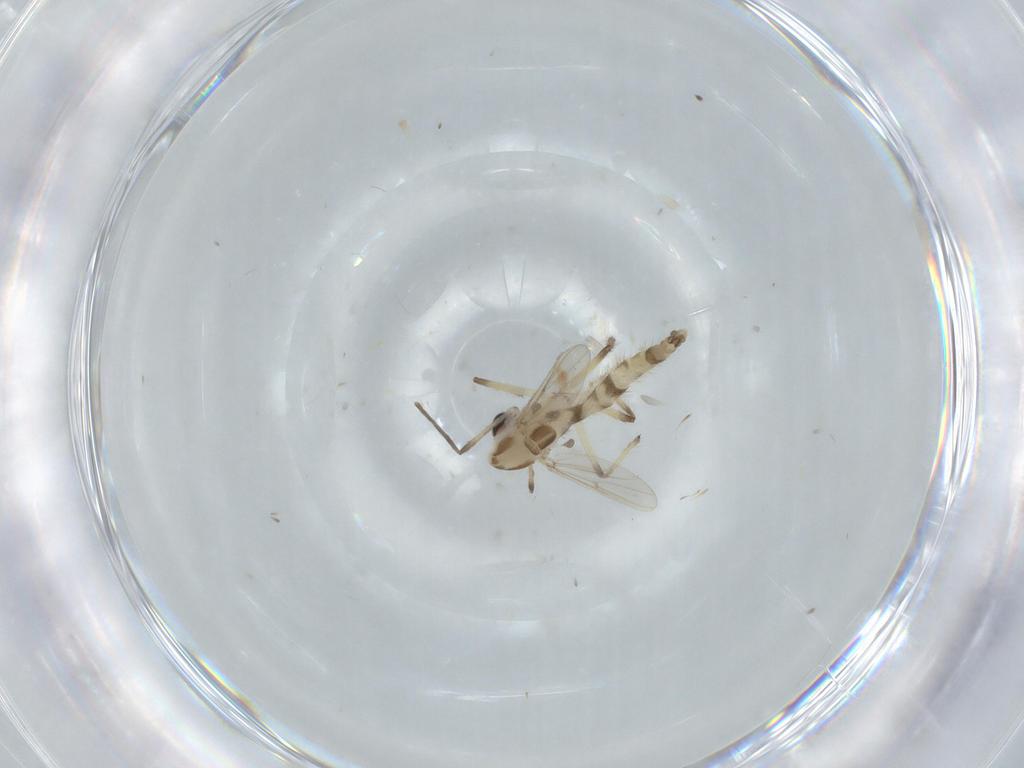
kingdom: Animalia
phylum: Arthropoda
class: Insecta
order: Diptera
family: Chironomidae
